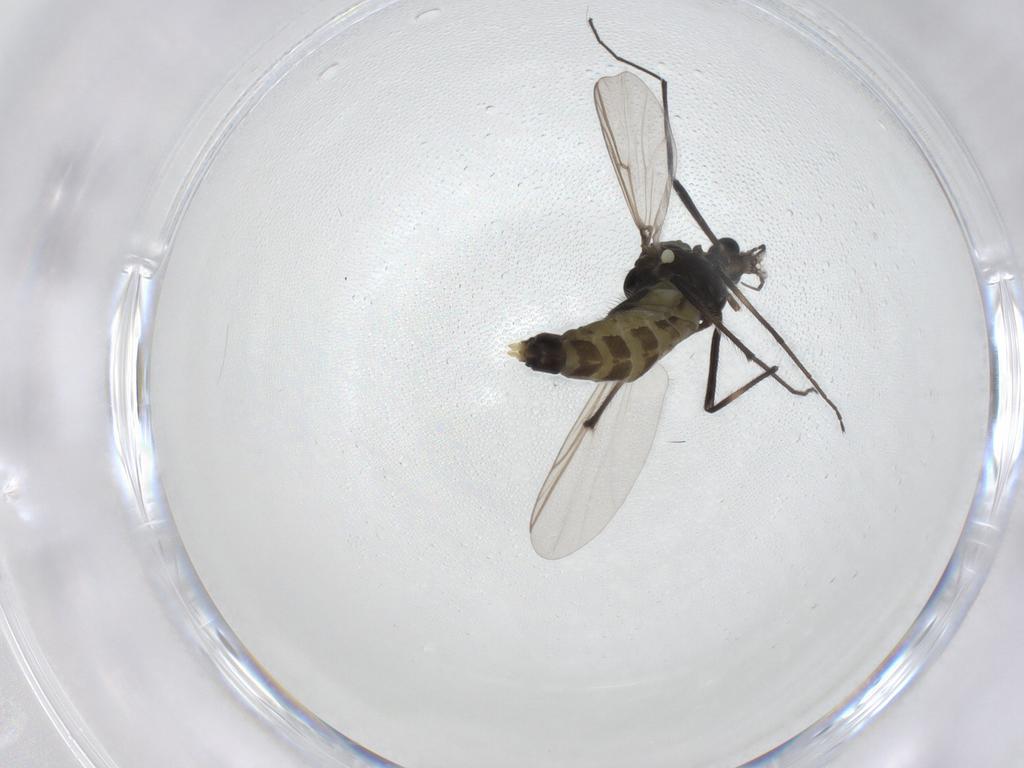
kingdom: Animalia
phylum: Arthropoda
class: Insecta
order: Diptera
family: Chironomidae
